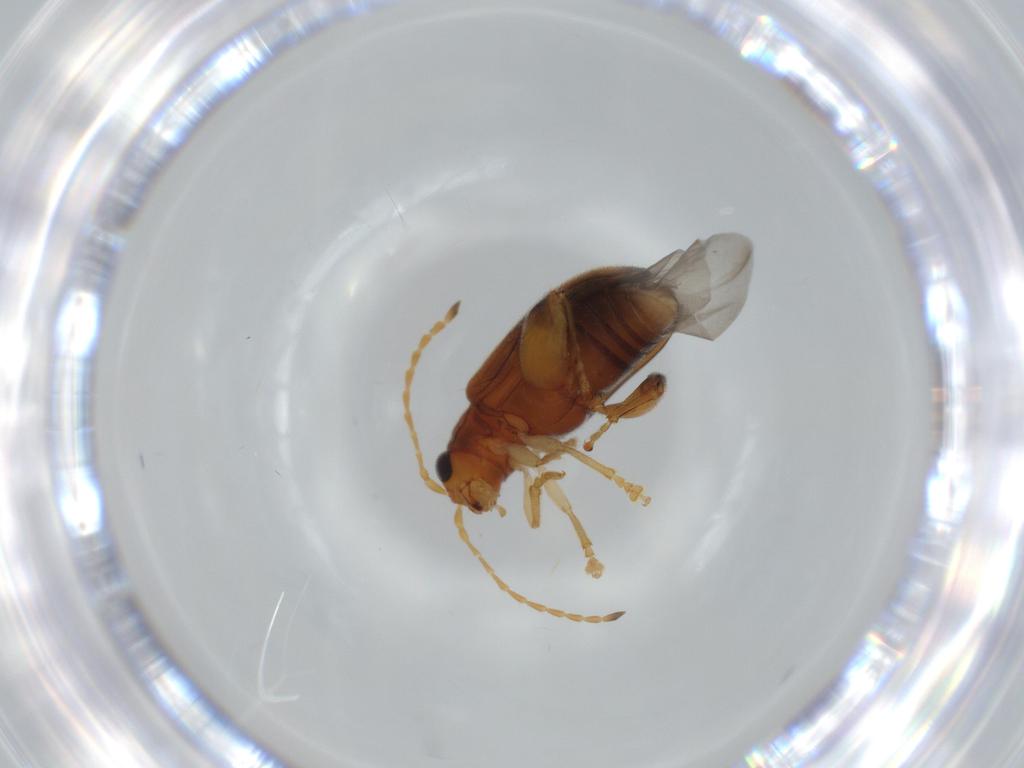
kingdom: Animalia
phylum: Arthropoda
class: Insecta
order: Coleoptera
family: Chrysomelidae
